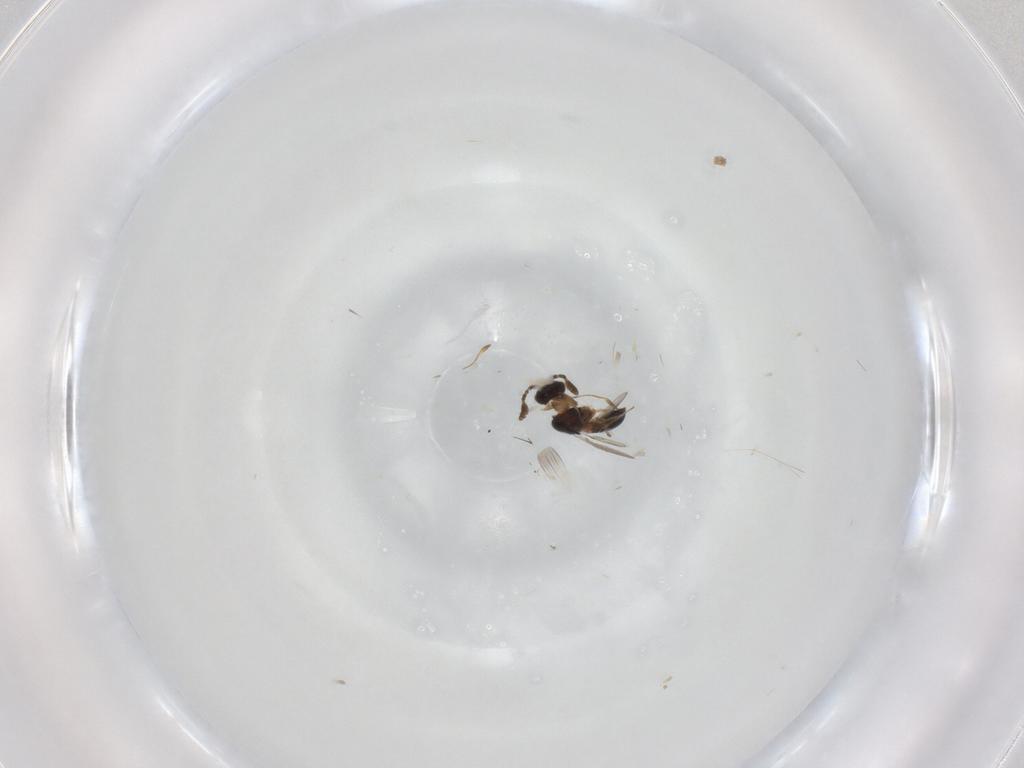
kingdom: Animalia
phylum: Arthropoda
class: Insecta
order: Hymenoptera
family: Scelionidae
